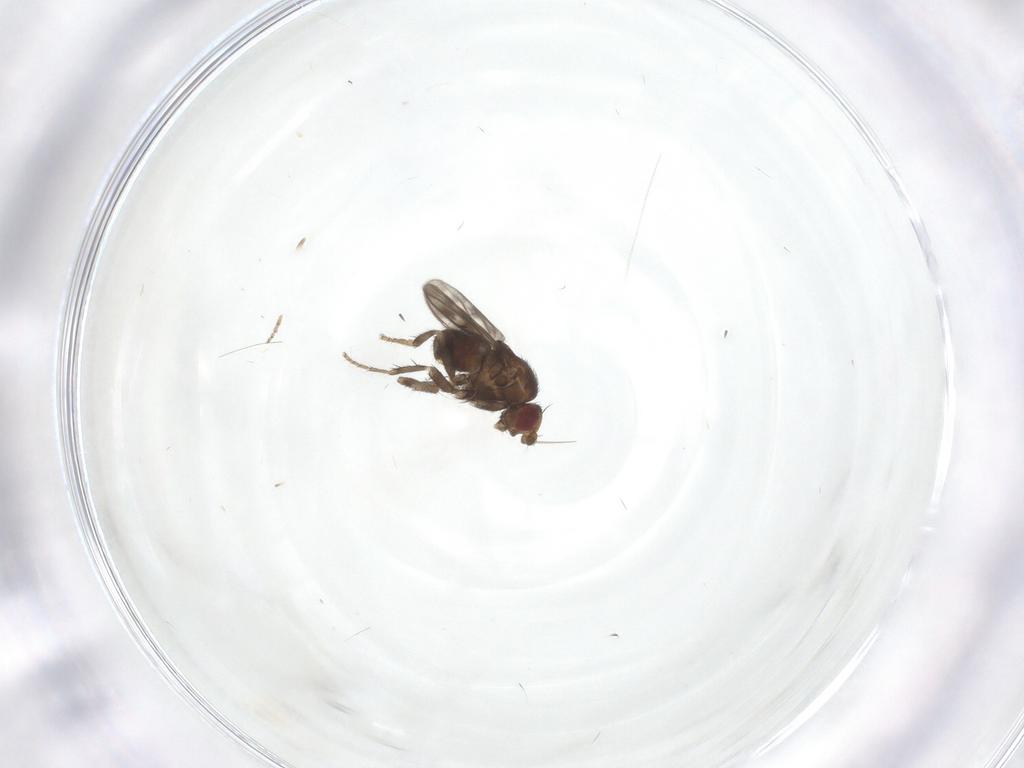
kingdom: Animalia
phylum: Arthropoda
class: Insecta
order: Diptera
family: Cecidomyiidae
